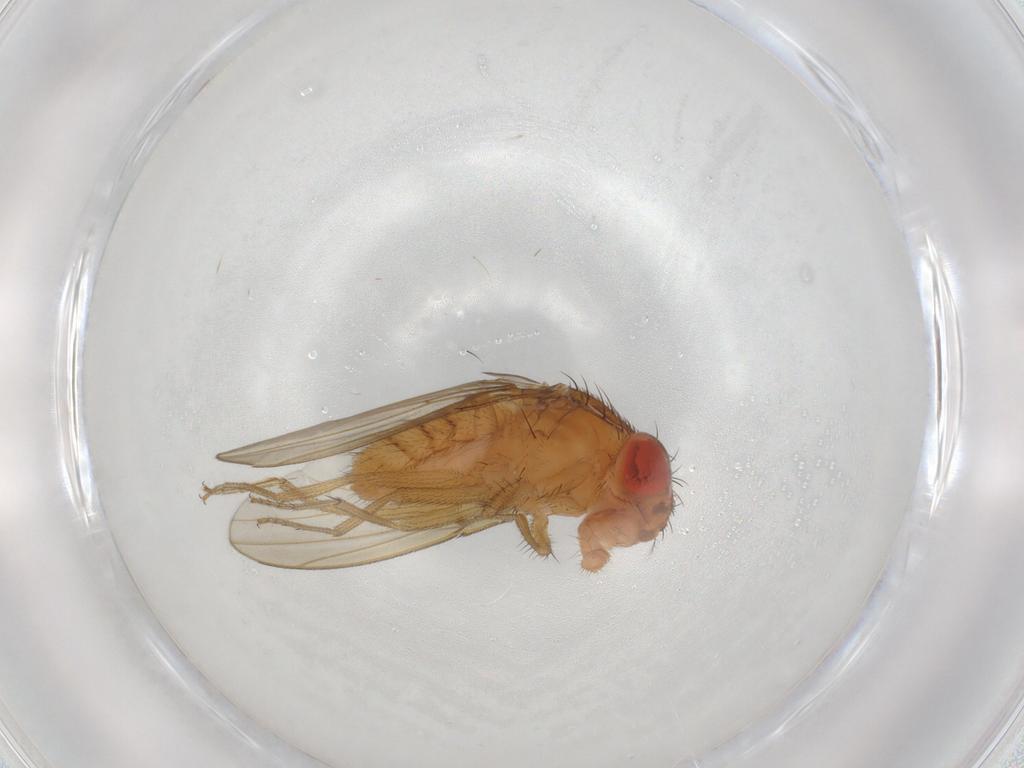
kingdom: Animalia
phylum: Arthropoda
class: Insecta
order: Diptera
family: Drosophilidae
